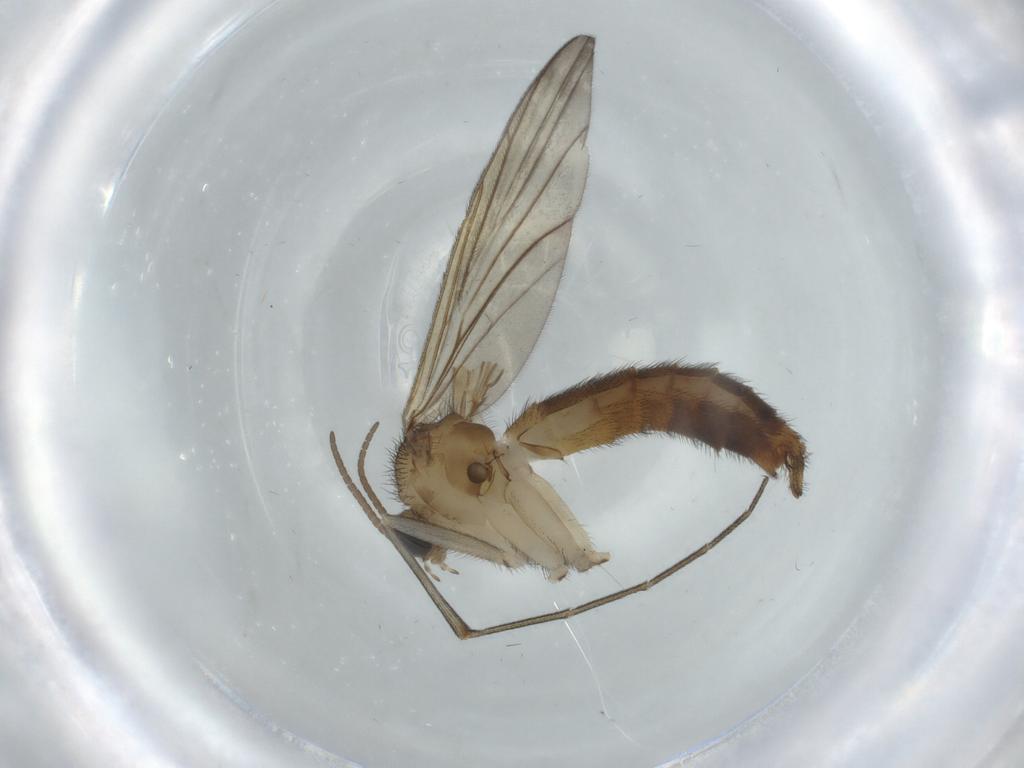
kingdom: Animalia
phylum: Arthropoda
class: Insecta
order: Diptera
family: Keroplatidae
